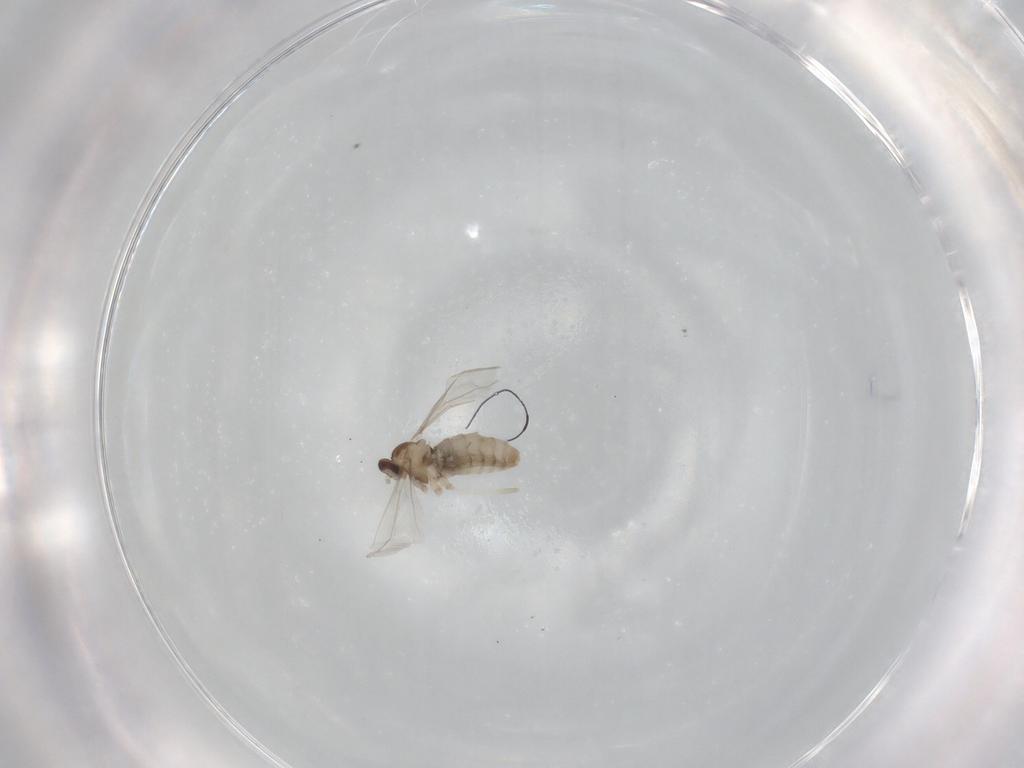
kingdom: Animalia
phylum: Arthropoda
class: Insecta
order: Diptera
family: Cecidomyiidae
